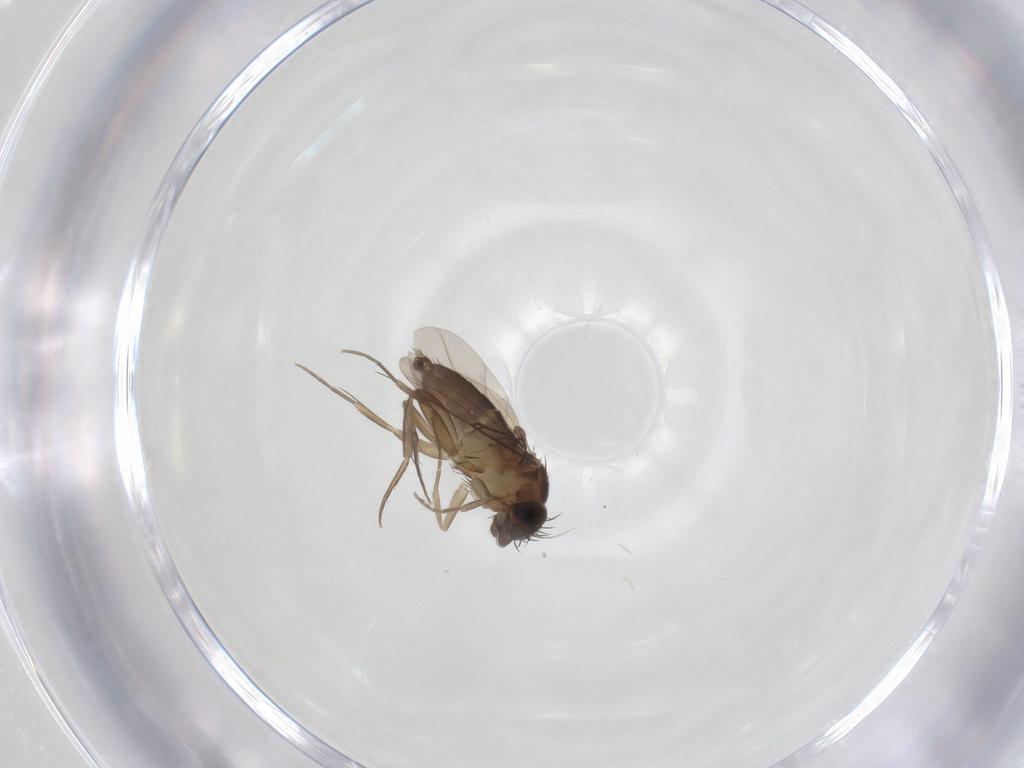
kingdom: Animalia
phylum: Arthropoda
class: Insecta
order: Diptera
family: Phoridae
